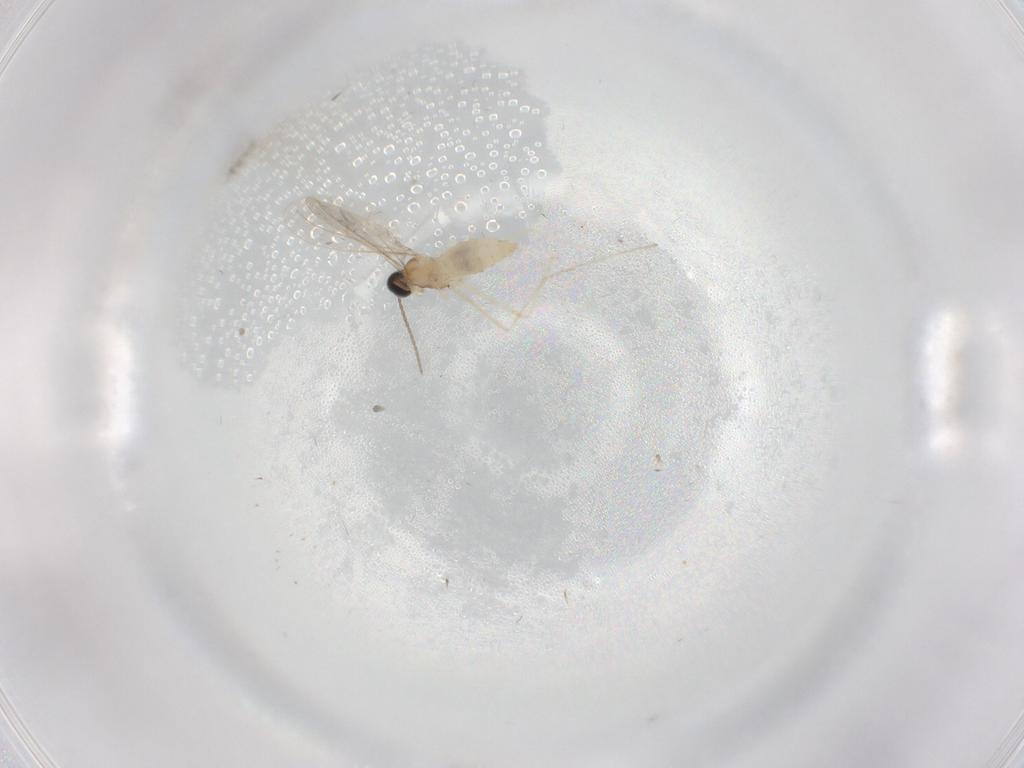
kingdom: Animalia
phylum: Arthropoda
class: Insecta
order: Diptera
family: Cecidomyiidae
